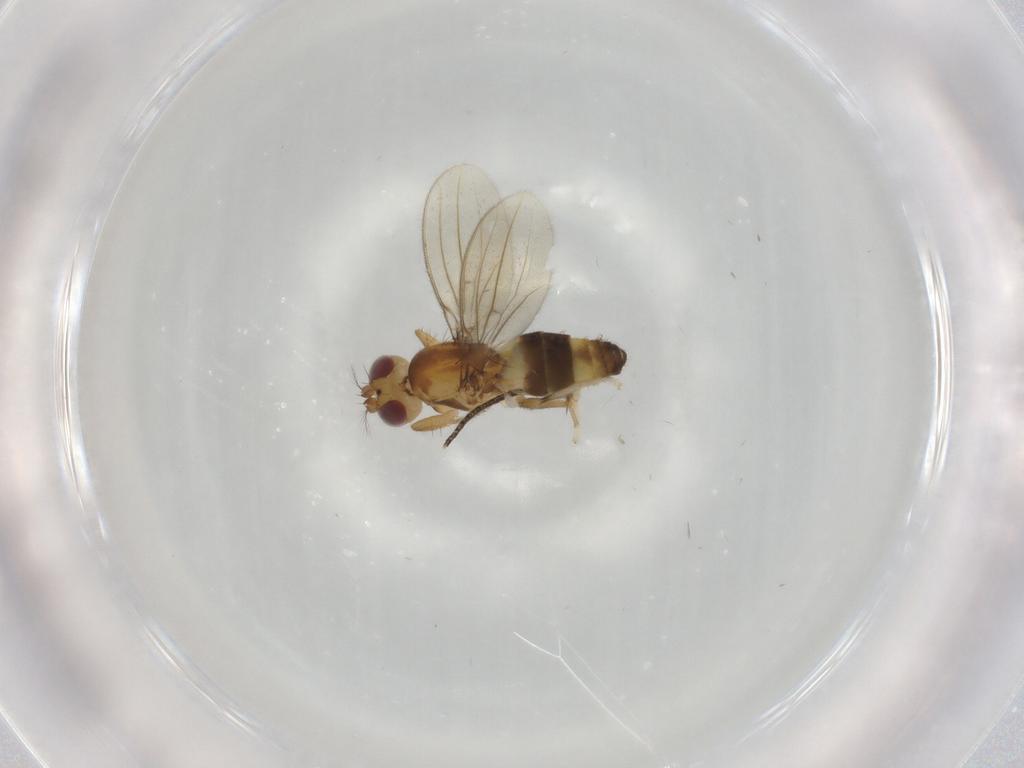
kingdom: Animalia
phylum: Arthropoda
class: Insecta
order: Diptera
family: Periscelididae
